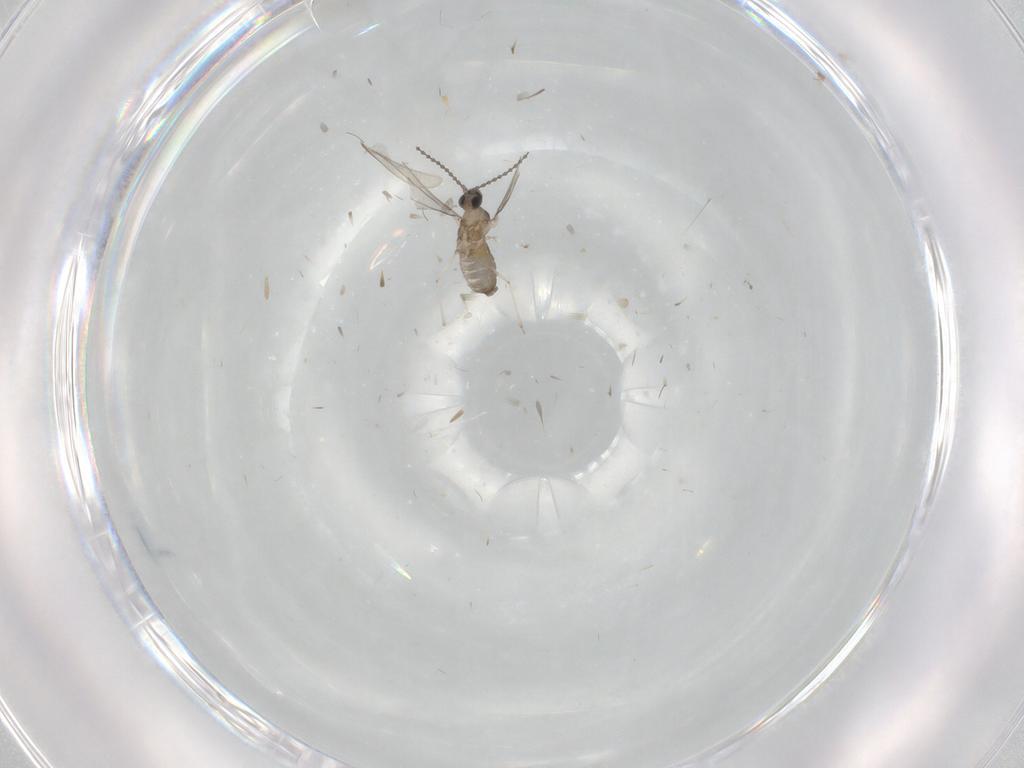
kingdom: Animalia
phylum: Arthropoda
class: Insecta
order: Diptera
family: Cecidomyiidae
